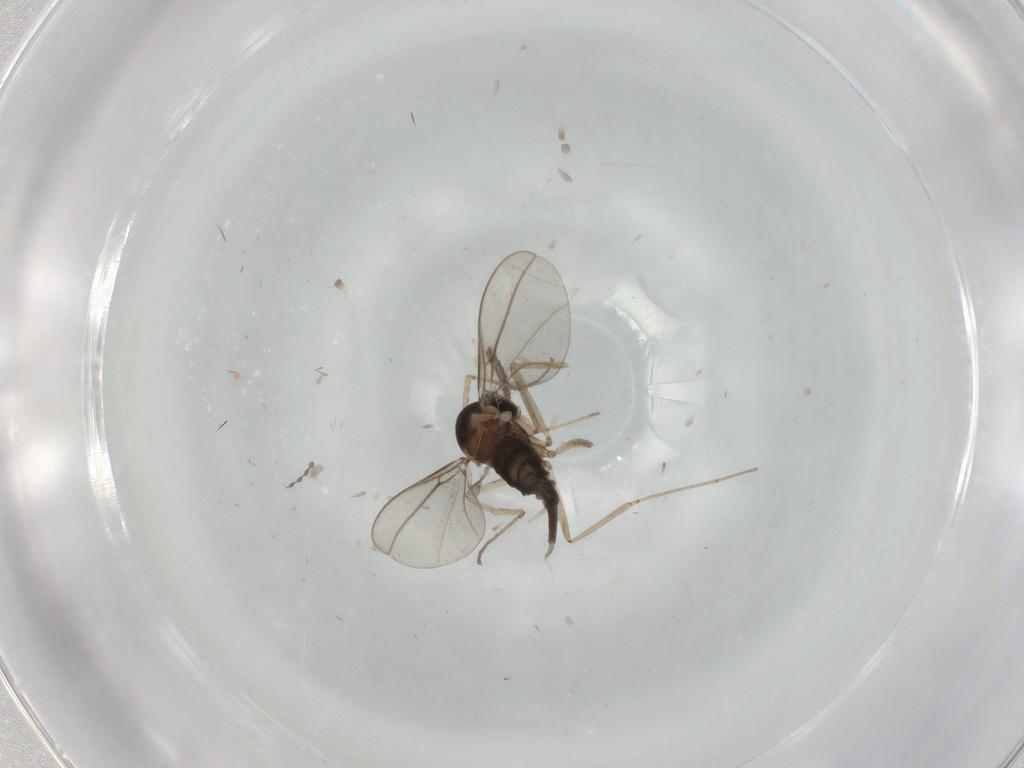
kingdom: Animalia
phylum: Arthropoda
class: Insecta
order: Diptera
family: Cecidomyiidae
